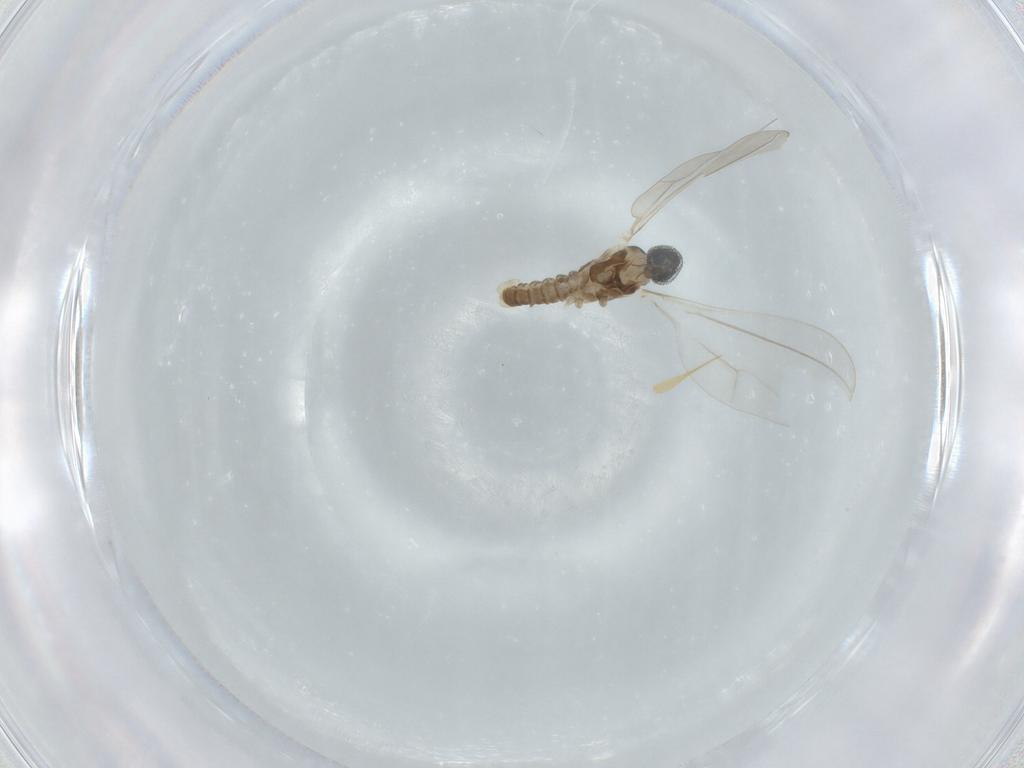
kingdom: Animalia
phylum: Arthropoda
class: Insecta
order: Diptera
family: Cecidomyiidae
